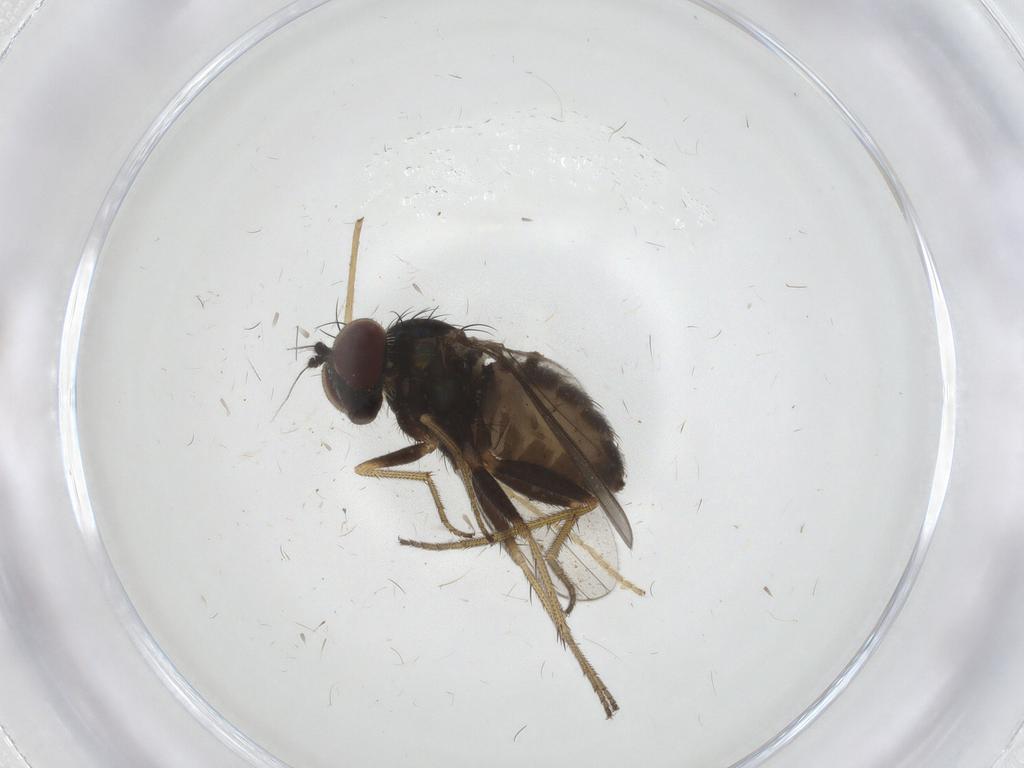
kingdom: Animalia
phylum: Arthropoda
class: Insecta
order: Diptera
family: Limoniidae
